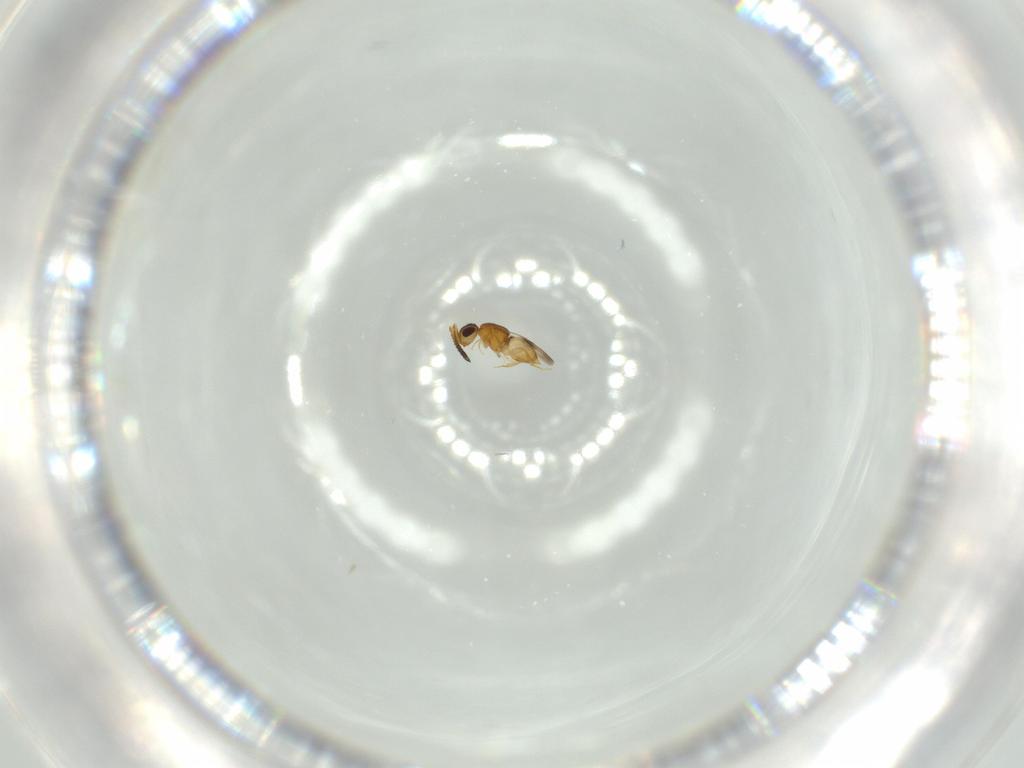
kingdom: Animalia
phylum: Arthropoda
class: Insecta
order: Hymenoptera
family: Ceraphronidae
